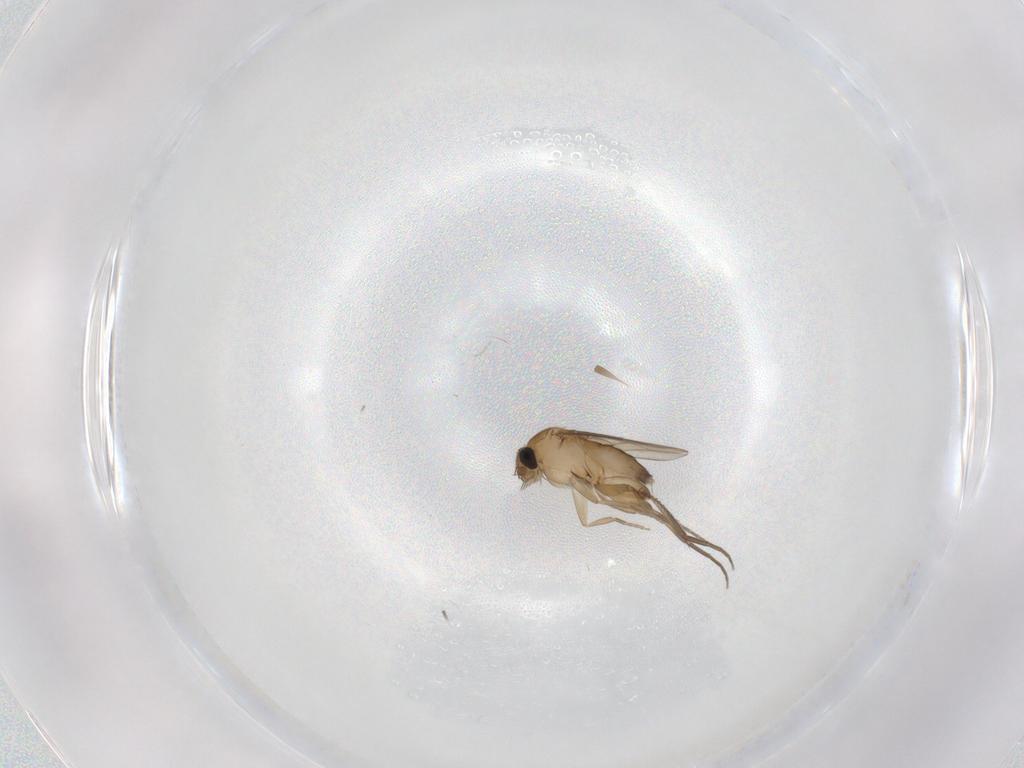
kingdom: Animalia
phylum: Arthropoda
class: Insecta
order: Diptera
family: Cecidomyiidae
